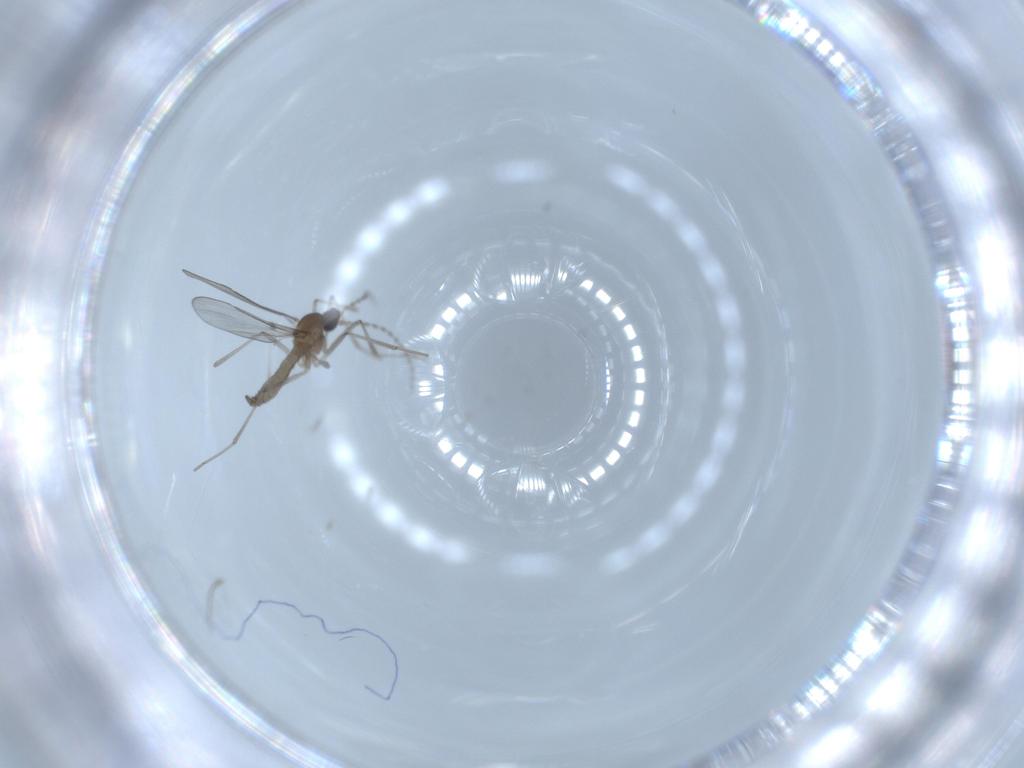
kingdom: Animalia
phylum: Arthropoda
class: Insecta
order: Diptera
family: Chironomidae
